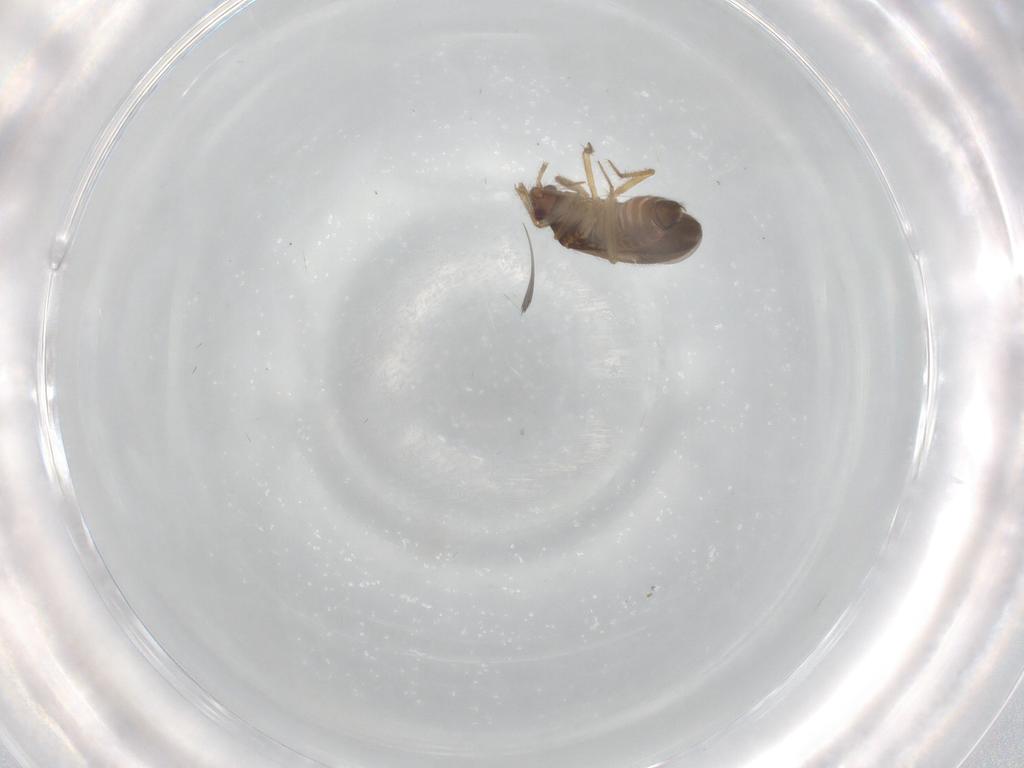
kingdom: Animalia
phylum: Arthropoda
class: Insecta
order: Hemiptera
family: Ceratocombidae
